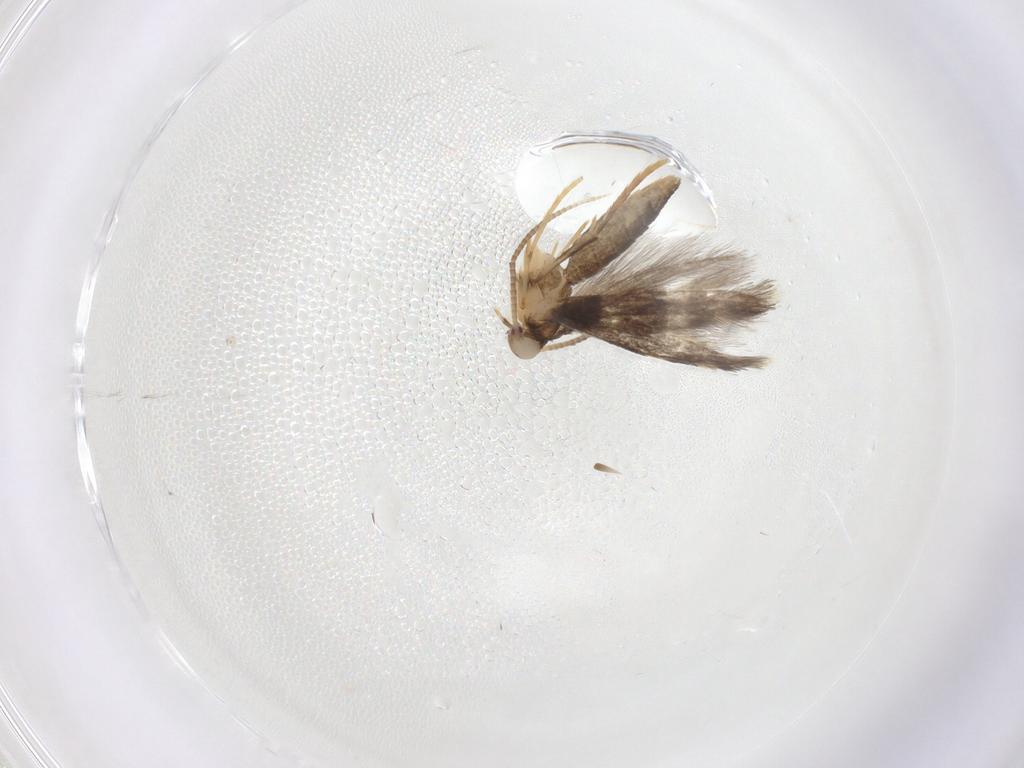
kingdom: Animalia
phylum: Arthropoda
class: Insecta
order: Lepidoptera
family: Gracillariidae
